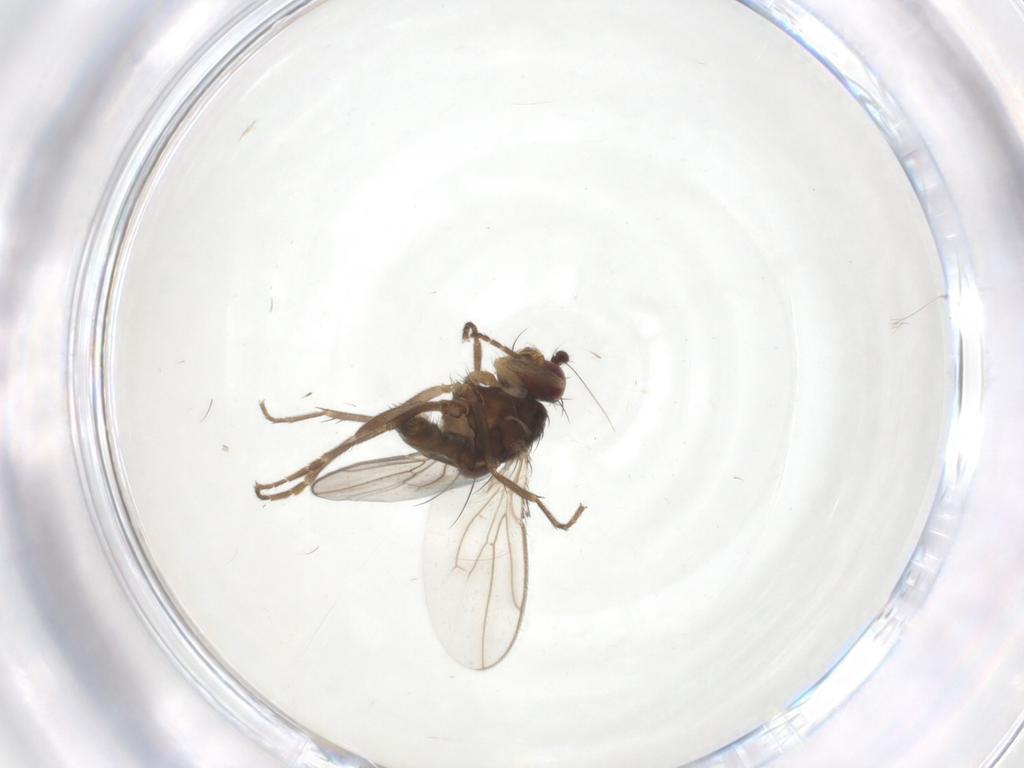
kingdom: Animalia
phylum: Arthropoda
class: Insecta
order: Diptera
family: Sphaeroceridae
